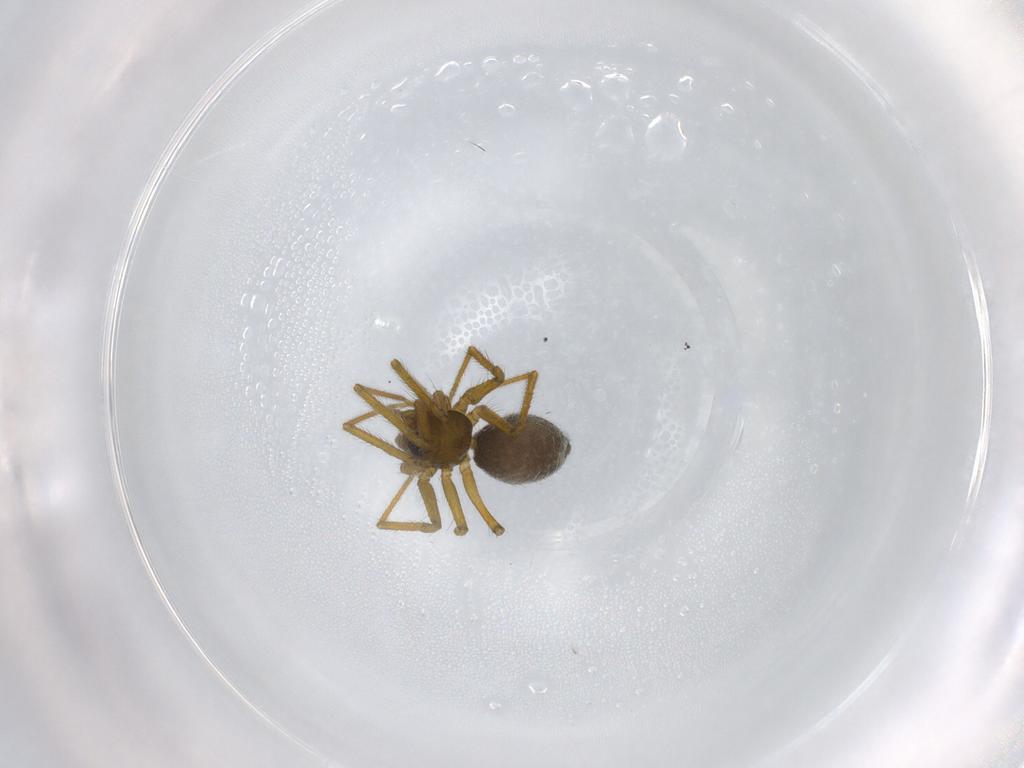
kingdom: Animalia
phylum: Arthropoda
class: Arachnida
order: Araneae
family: Linyphiidae
